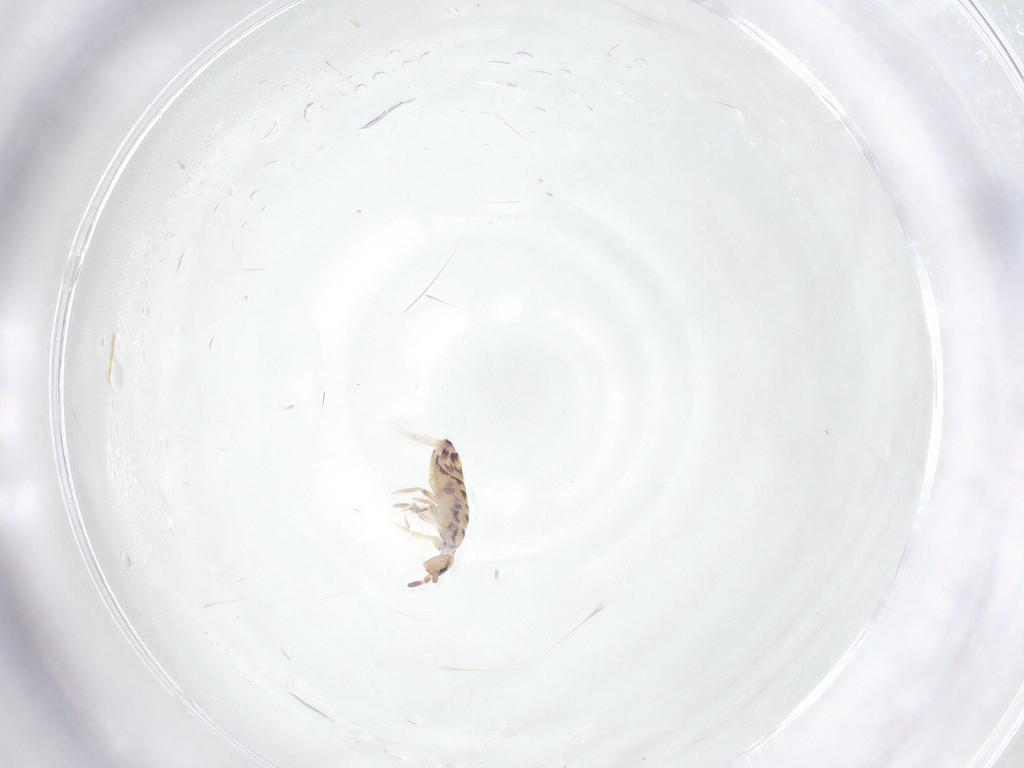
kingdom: Animalia
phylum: Arthropoda
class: Collembola
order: Entomobryomorpha
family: Entomobryidae
